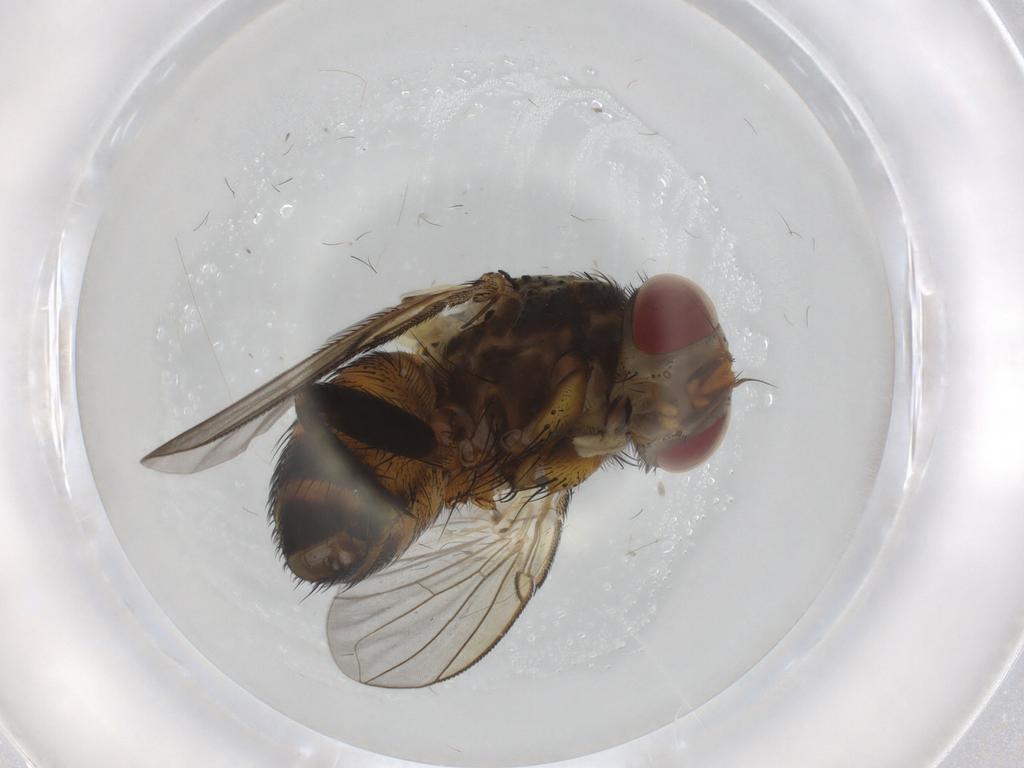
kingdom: Animalia
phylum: Arthropoda
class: Insecta
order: Diptera
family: Tachinidae
